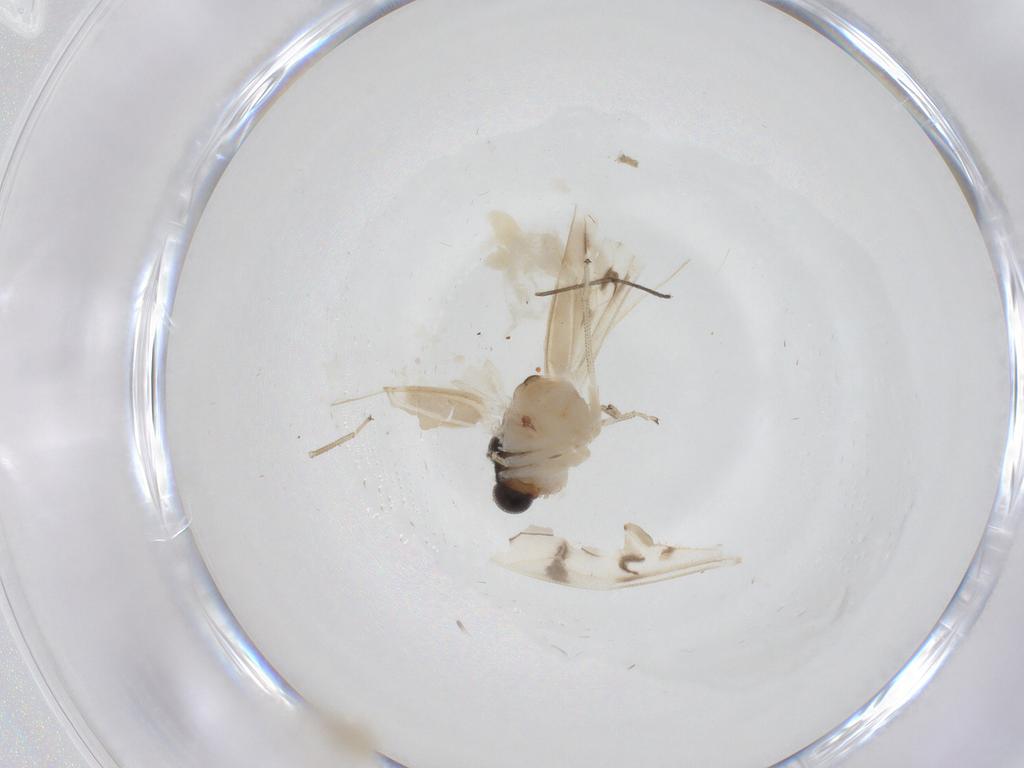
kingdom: Animalia
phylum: Arthropoda
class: Insecta
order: Psocodea
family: Caeciliusidae
